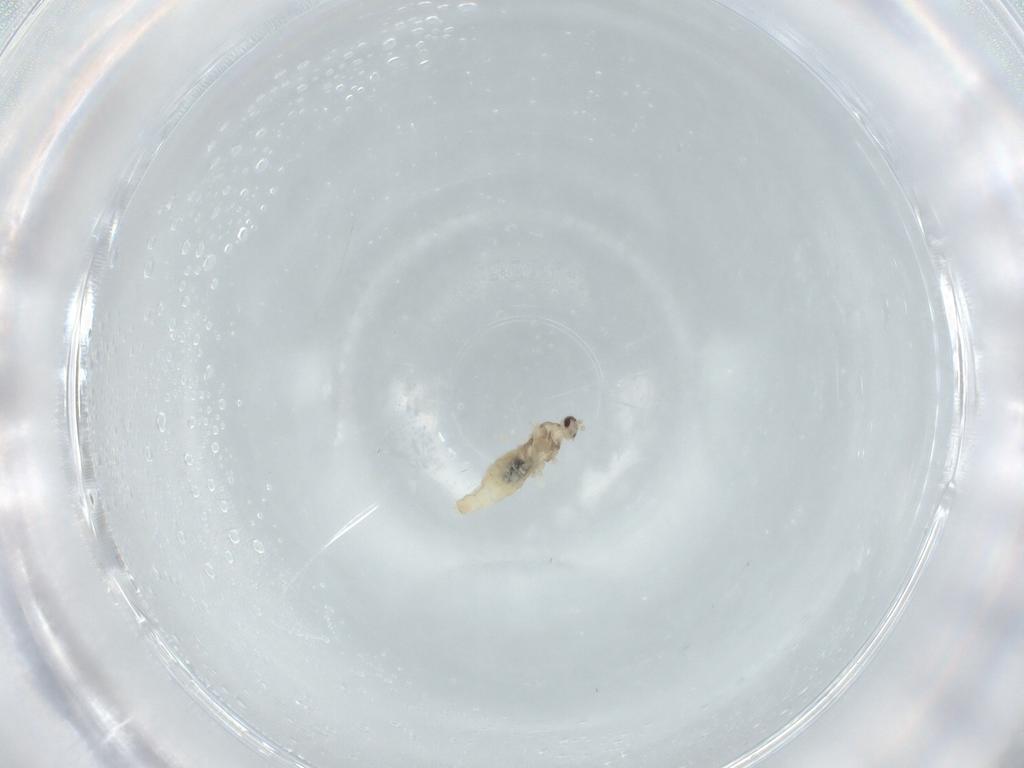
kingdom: Animalia
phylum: Arthropoda
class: Insecta
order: Diptera
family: Cecidomyiidae
